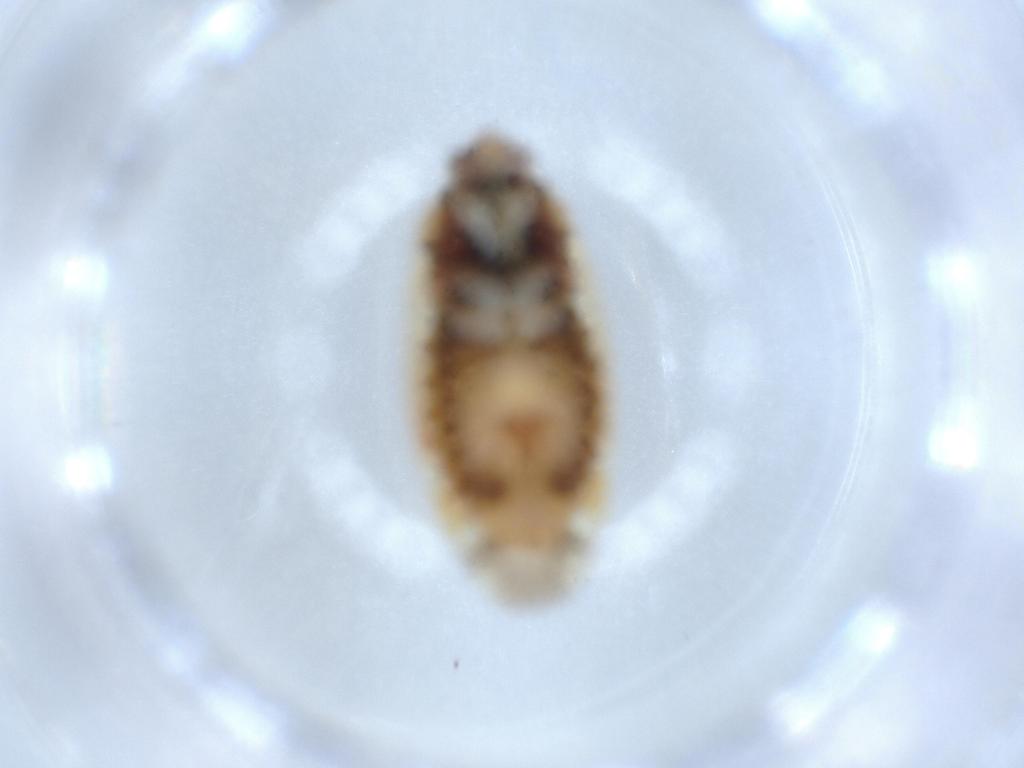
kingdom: Animalia
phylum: Arthropoda
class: Insecta
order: Hemiptera
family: Miridae
